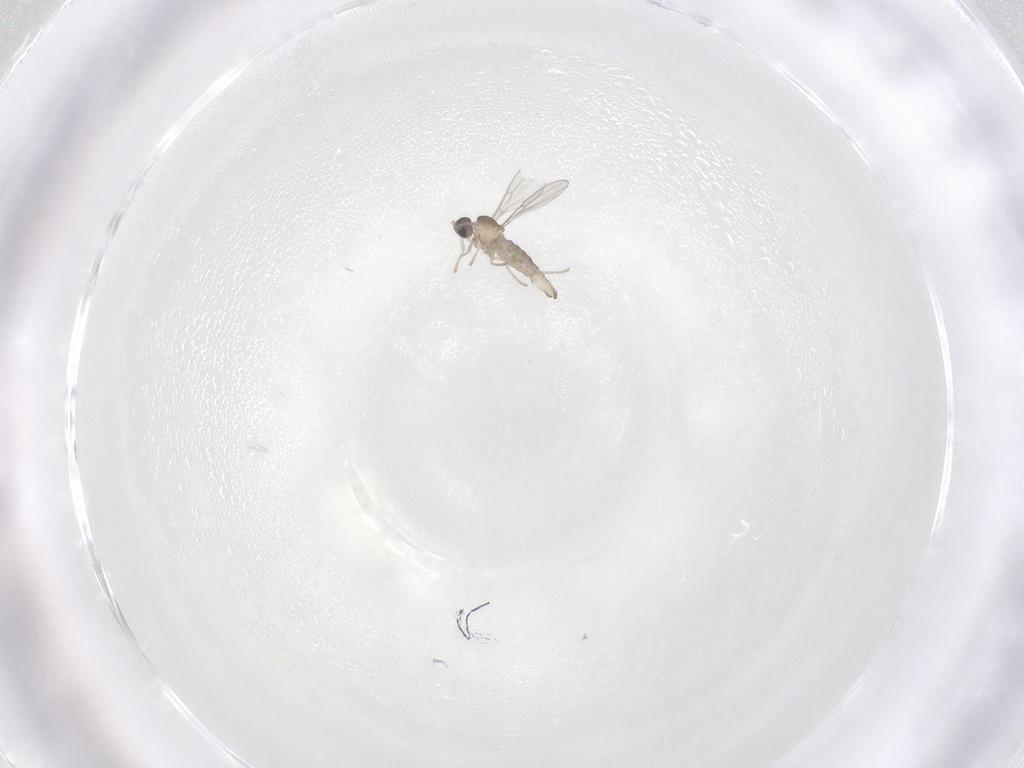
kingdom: Animalia
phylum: Arthropoda
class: Insecta
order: Diptera
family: Cecidomyiidae
